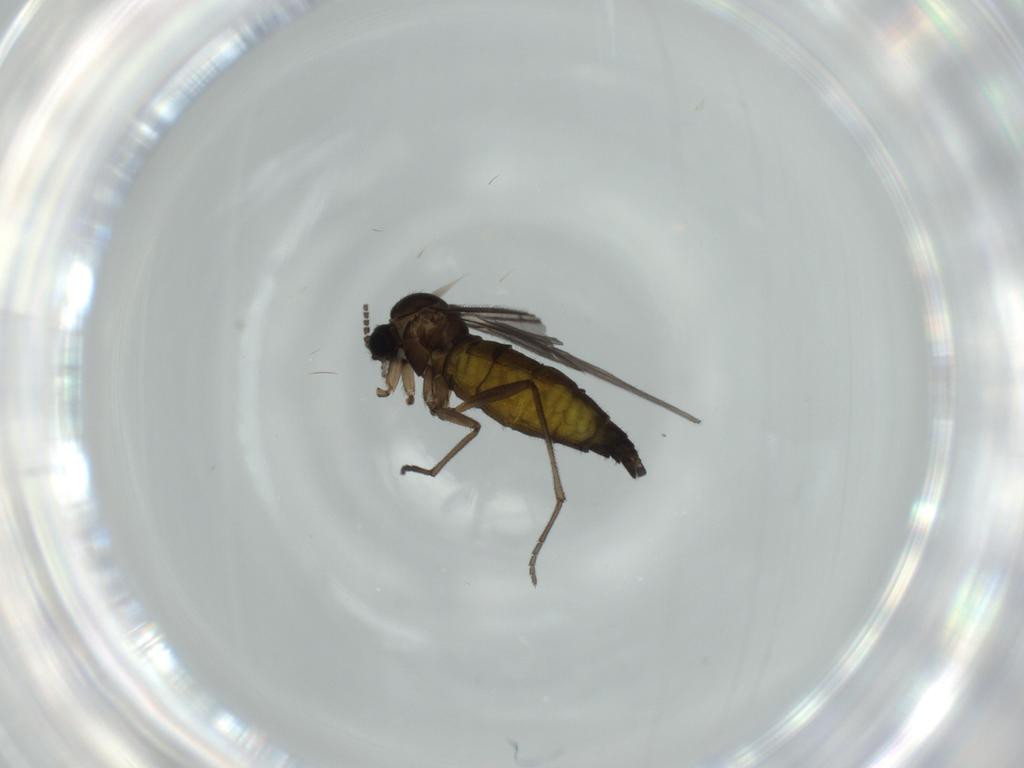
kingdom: Animalia
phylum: Arthropoda
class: Insecta
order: Diptera
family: Sciaridae
